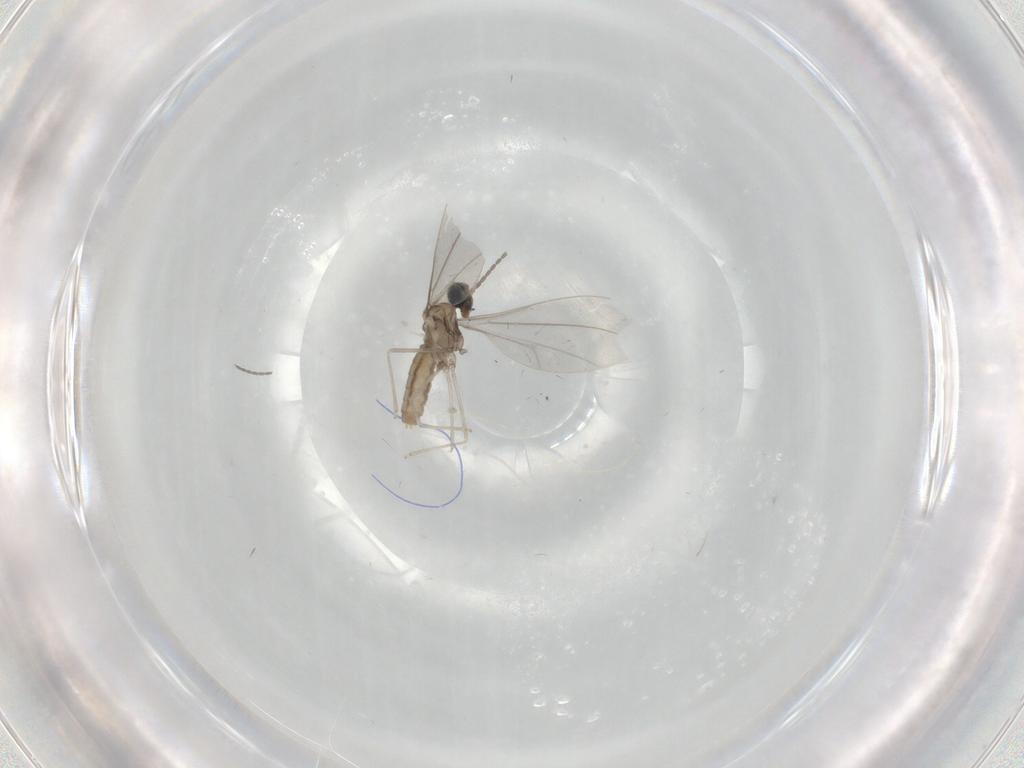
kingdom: Animalia
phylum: Arthropoda
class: Insecta
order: Diptera
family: Cecidomyiidae
